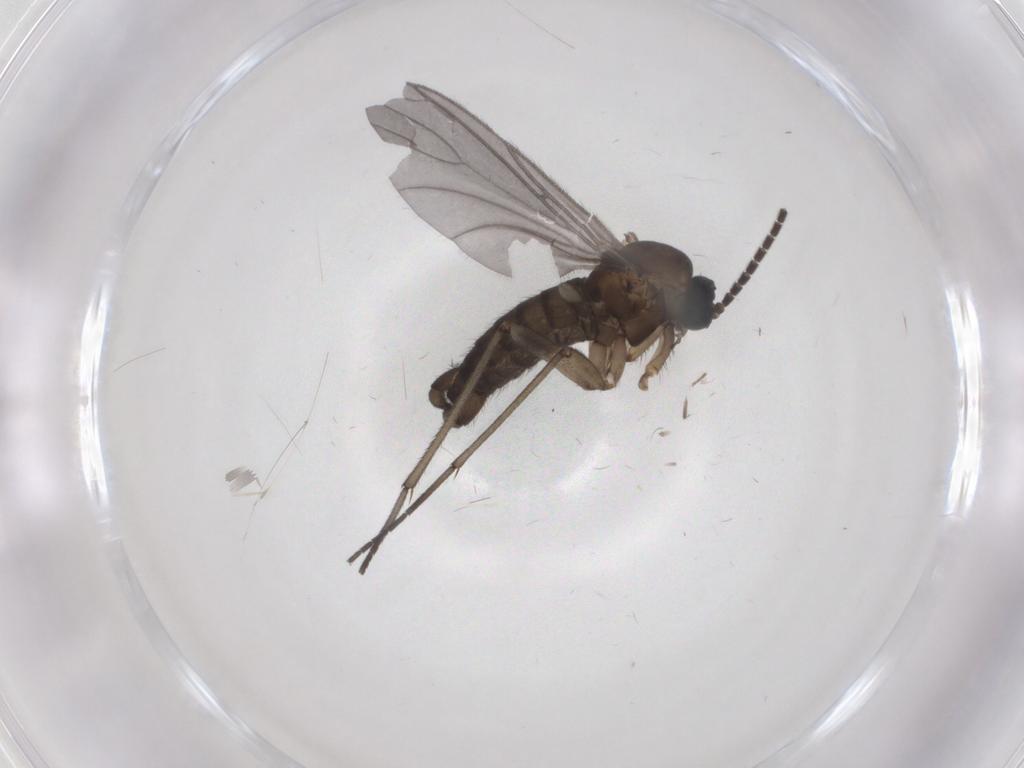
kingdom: Animalia
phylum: Arthropoda
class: Insecta
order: Diptera
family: Sciaridae
